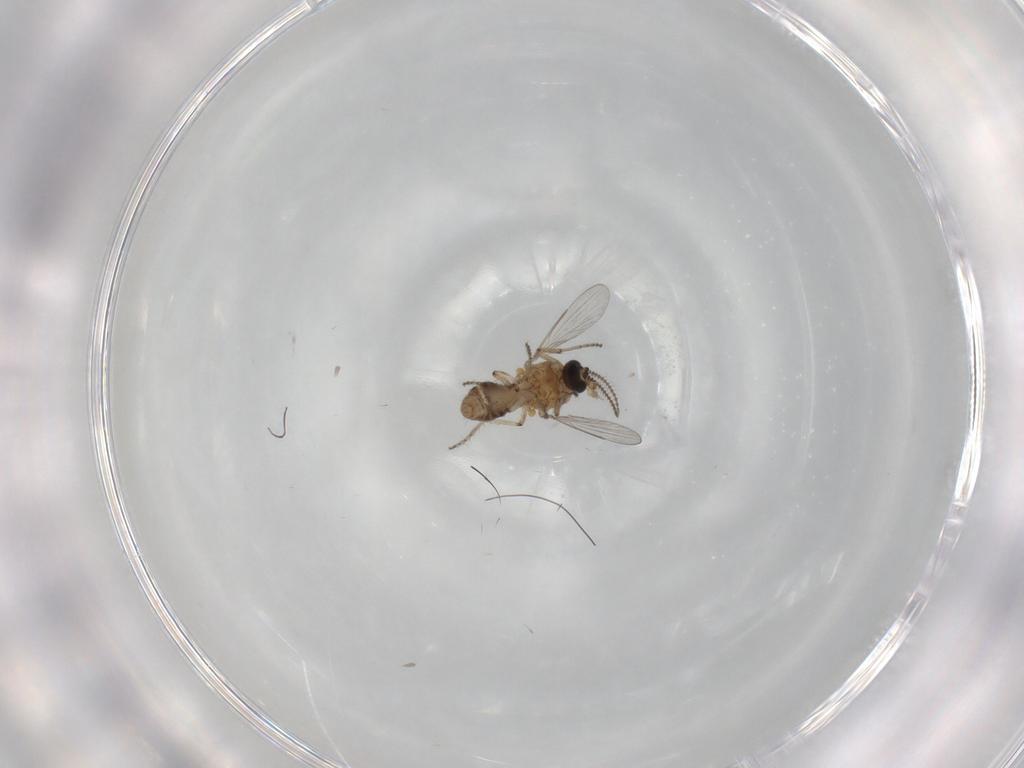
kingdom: Animalia
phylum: Arthropoda
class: Insecta
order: Diptera
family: Ceratopogonidae
